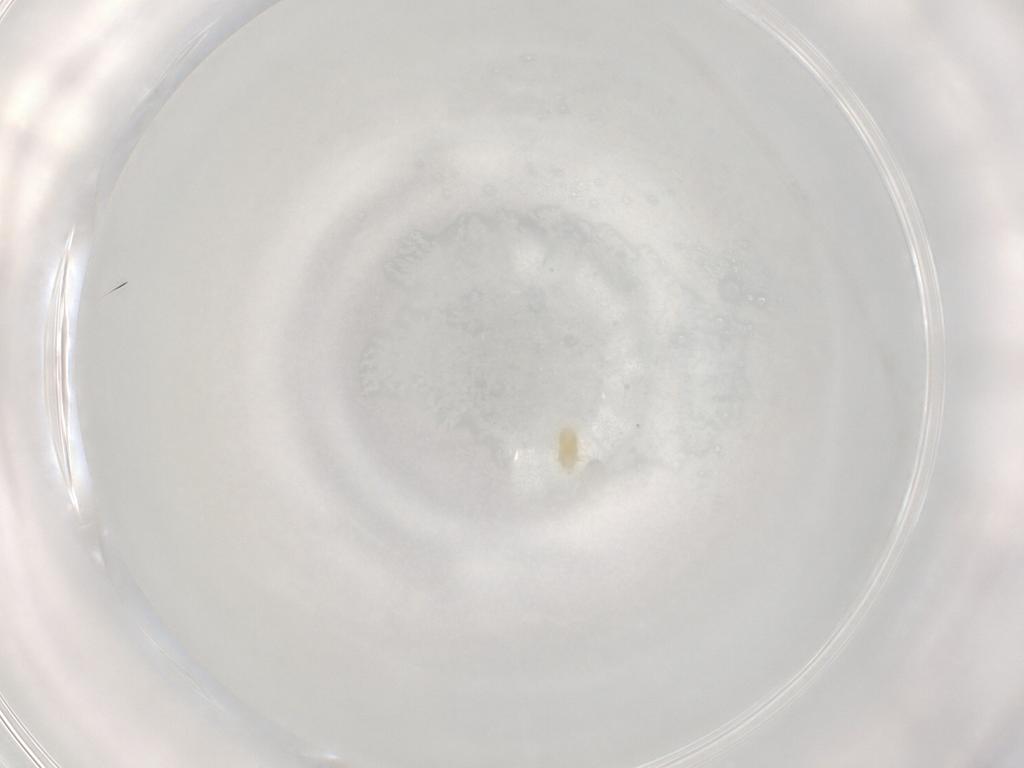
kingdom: Animalia
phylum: Arthropoda
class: Arachnida
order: Trombidiformes
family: Eupodidae
